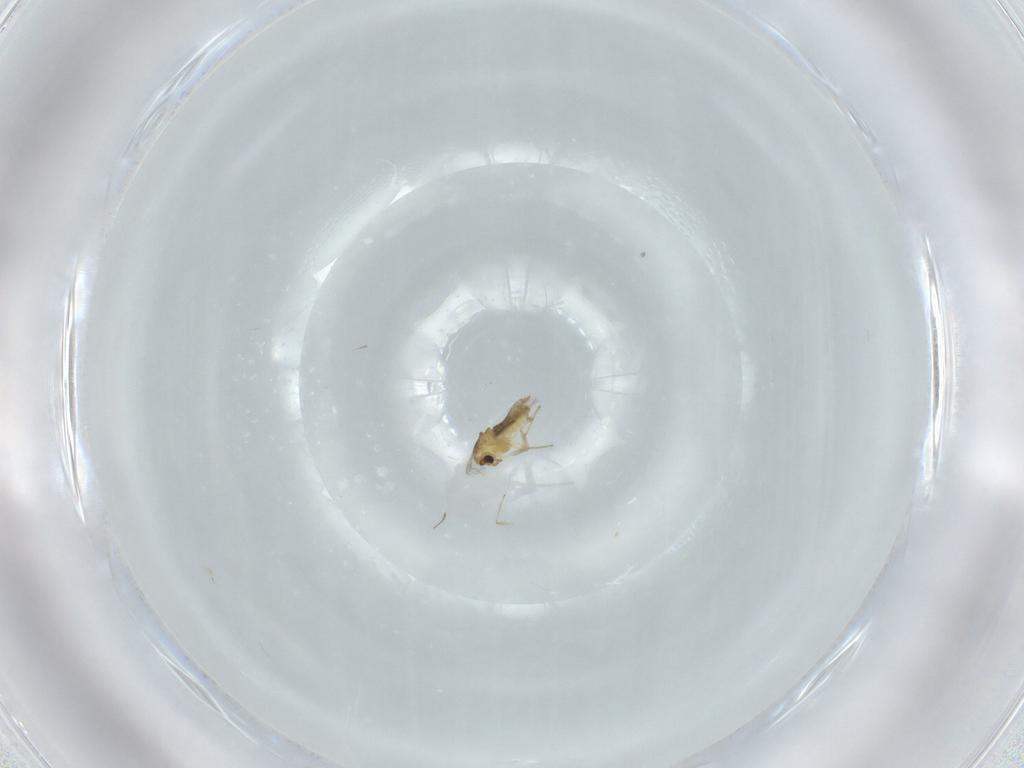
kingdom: Animalia
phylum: Arthropoda
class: Insecta
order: Diptera
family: Chironomidae
